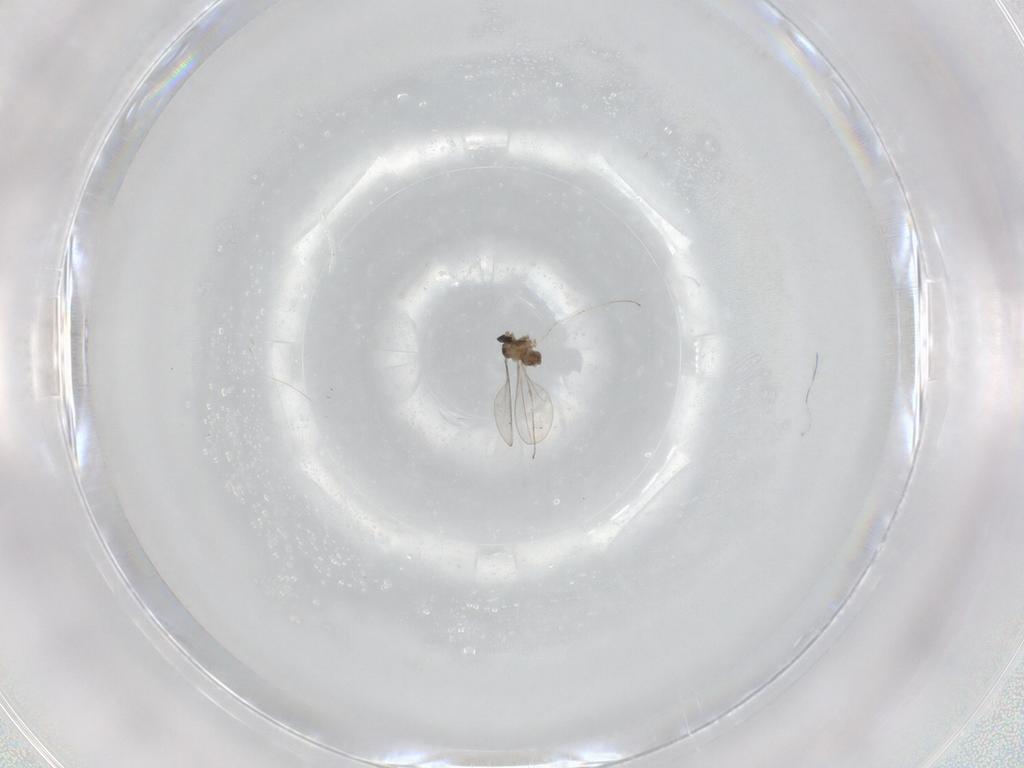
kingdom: Animalia
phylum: Arthropoda
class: Insecta
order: Diptera
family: Cecidomyiidae
